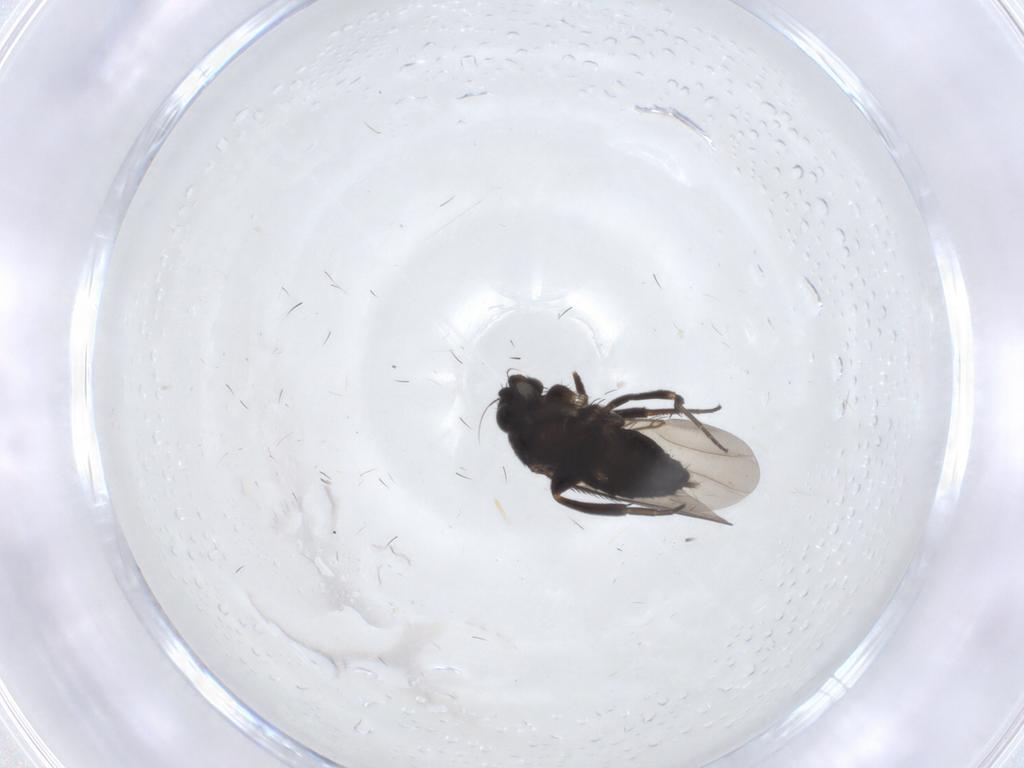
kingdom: Animalia
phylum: Arthropoda
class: Insecta
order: Diptera
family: Phoridae
